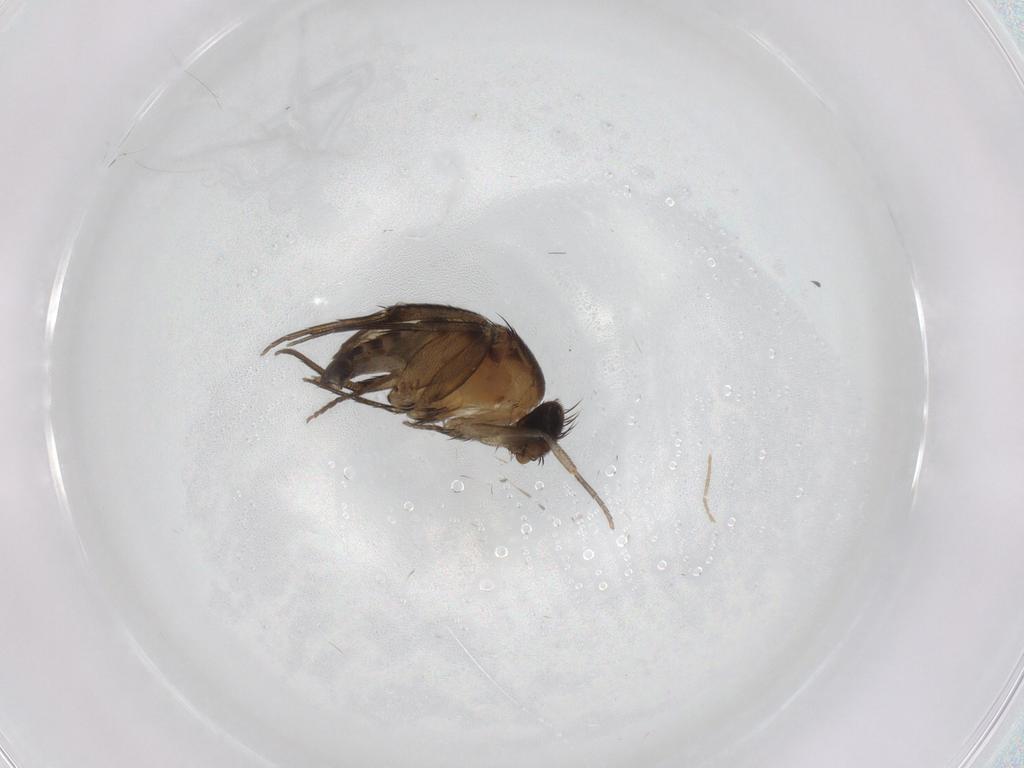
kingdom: Animalia
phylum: Arthropoda
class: Insecta
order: Diptera
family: Chironomidae
